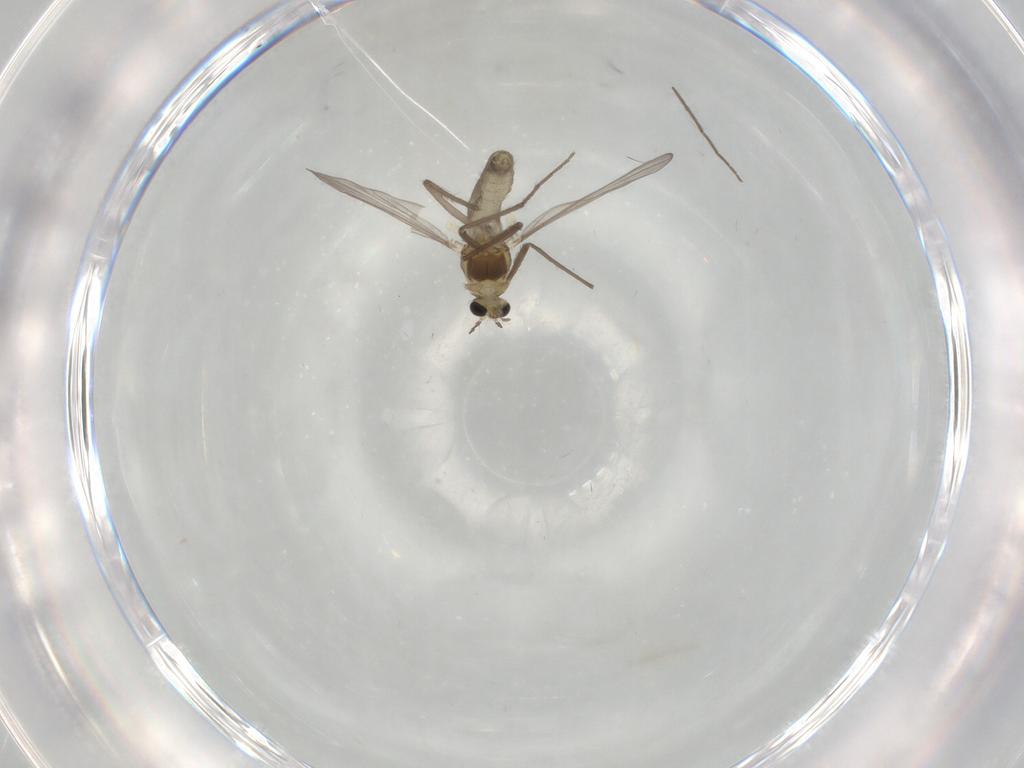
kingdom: Animalia
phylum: Arthropoda
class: Insecta
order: Diptera
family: Chironomidae
